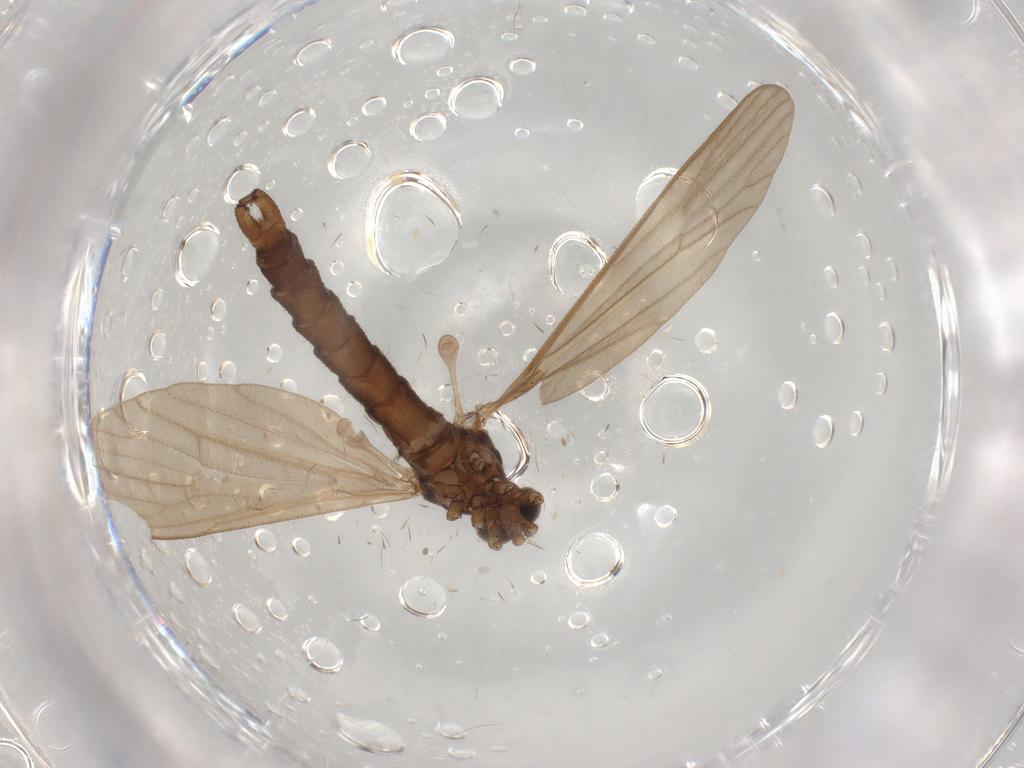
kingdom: Animalia
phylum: Arthropoda
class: Insecta
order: Diptera
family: Limoniidae
